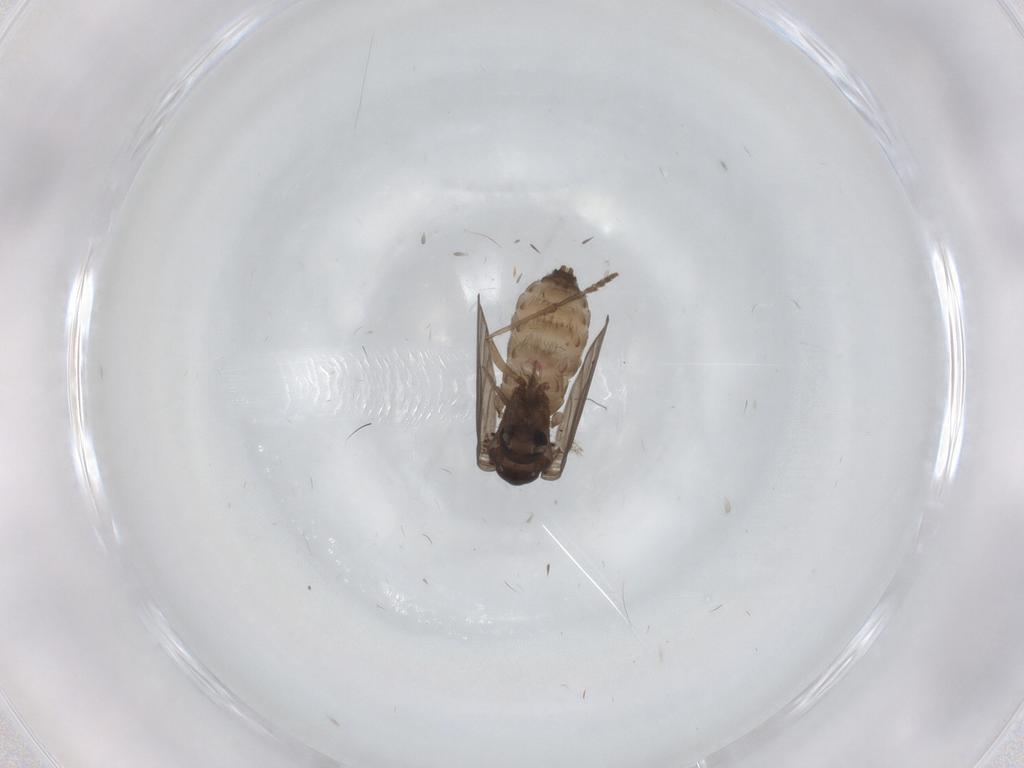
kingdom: Animalia
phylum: Arthropoda
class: Insecta
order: Diptera
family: Psychodidae
